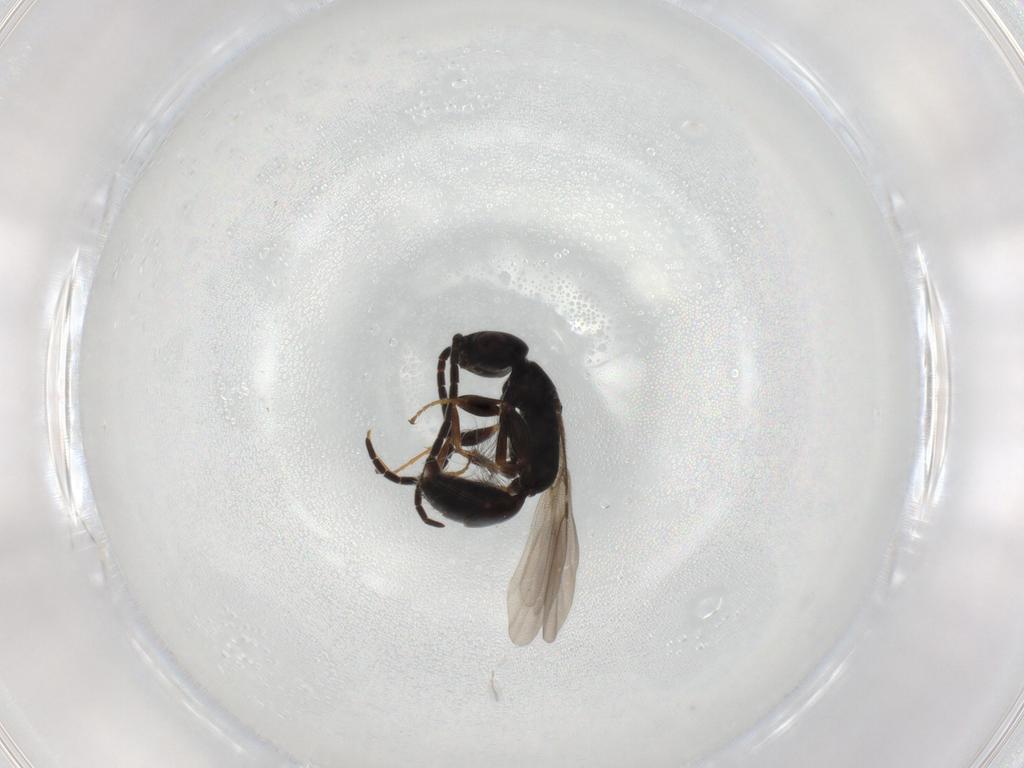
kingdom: Animalia
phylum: Arthropoda
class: Insecta
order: Hymenoptera
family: Bethylidae
